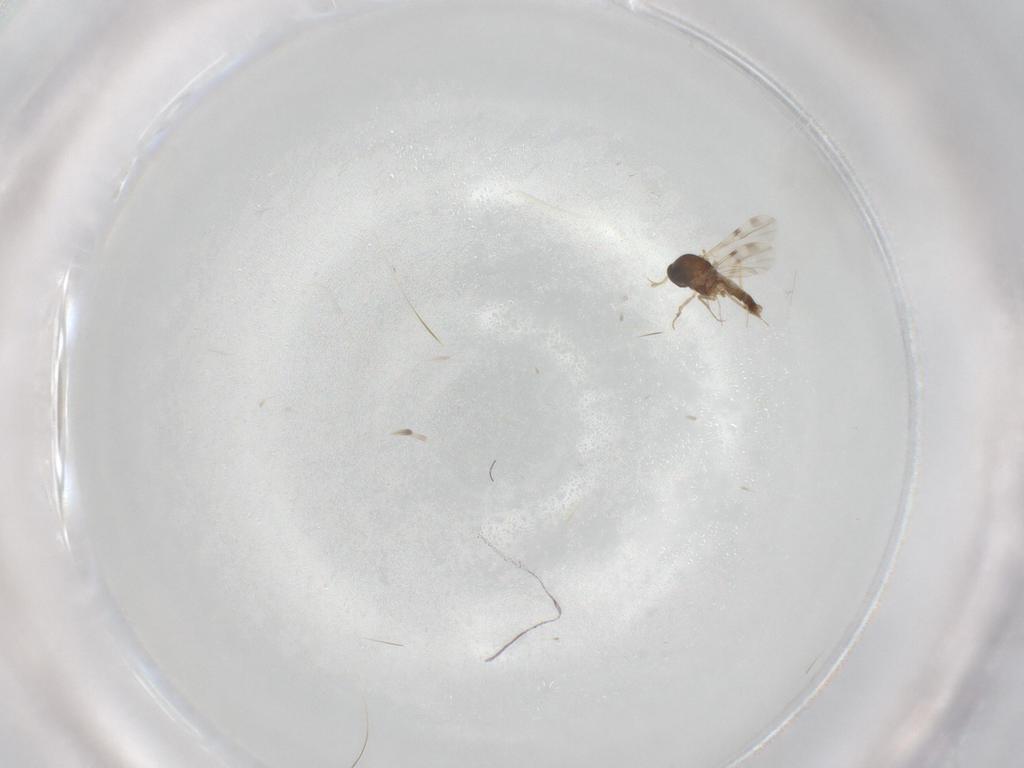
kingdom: Animalia
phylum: Arthropoda
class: Insecta
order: Diptera
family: Ceratopogonidae
